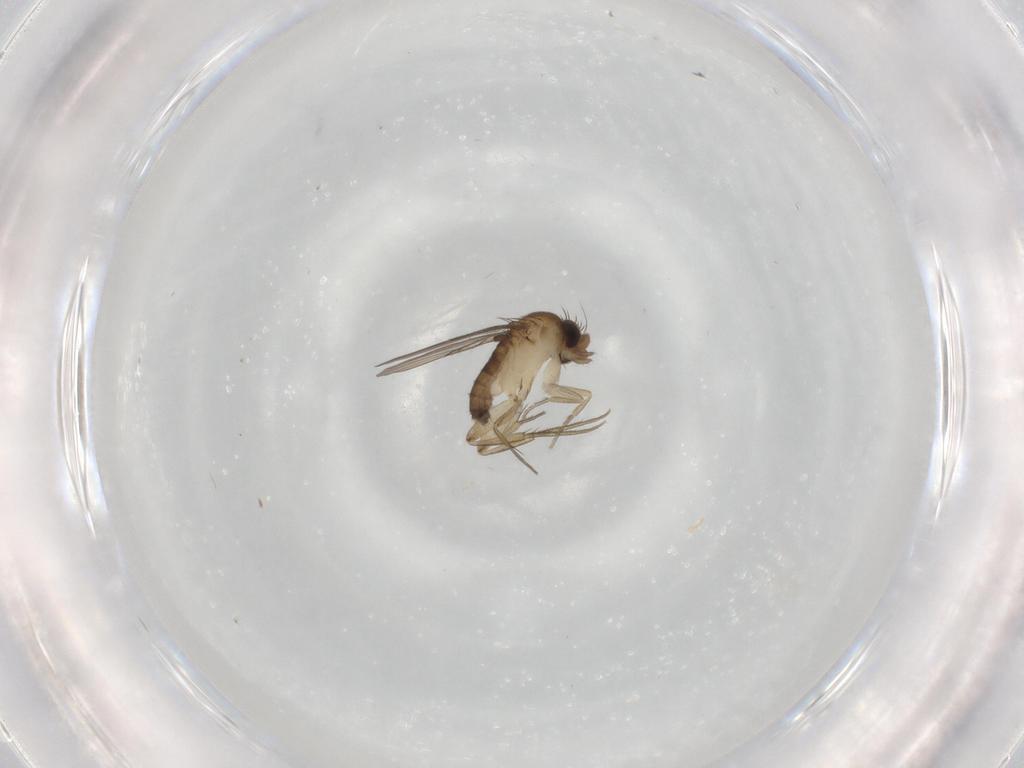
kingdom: Animalia
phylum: Arthropoda
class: Insecta
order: Diptera
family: Phoridae
